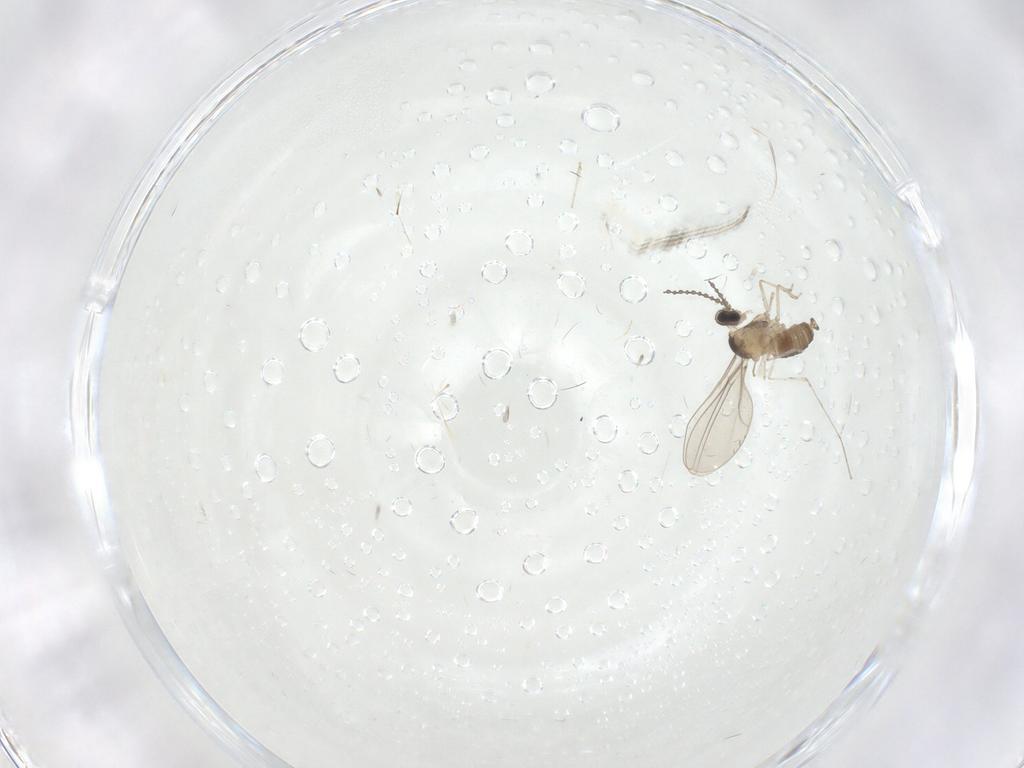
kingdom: Animalia
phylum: Arthropoda
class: Insecta
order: Diptera
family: Cecidomyiidae
